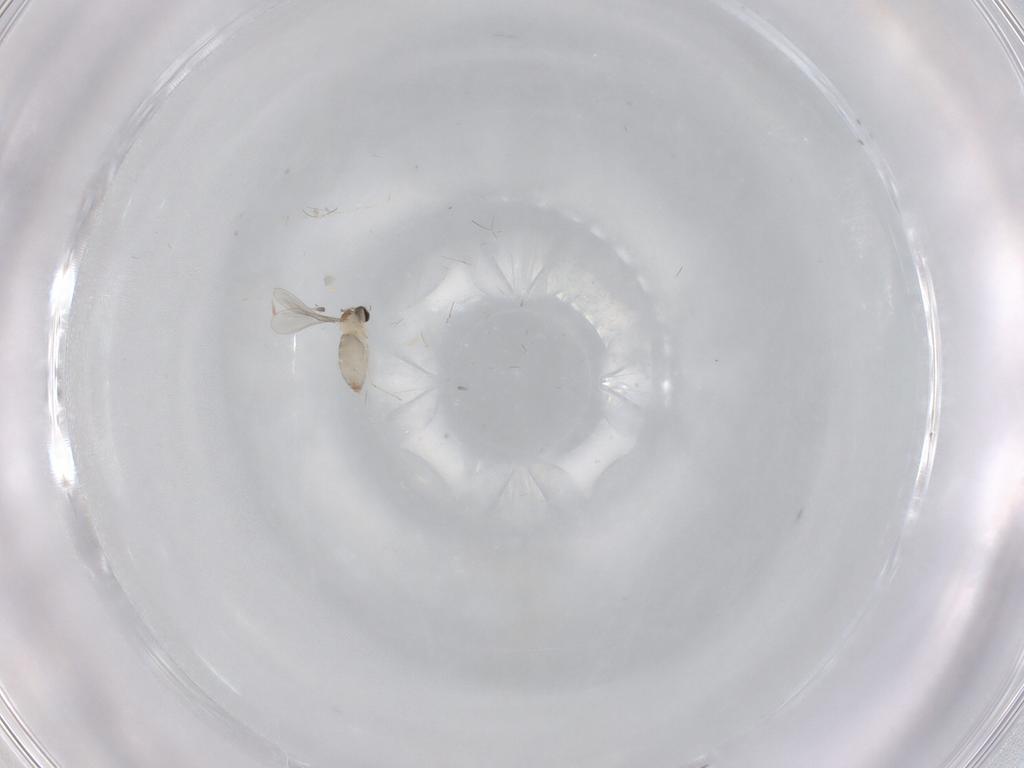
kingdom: Animalia
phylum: Arthropoda
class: Insecta
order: Diptera
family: Cecidomyiidae
